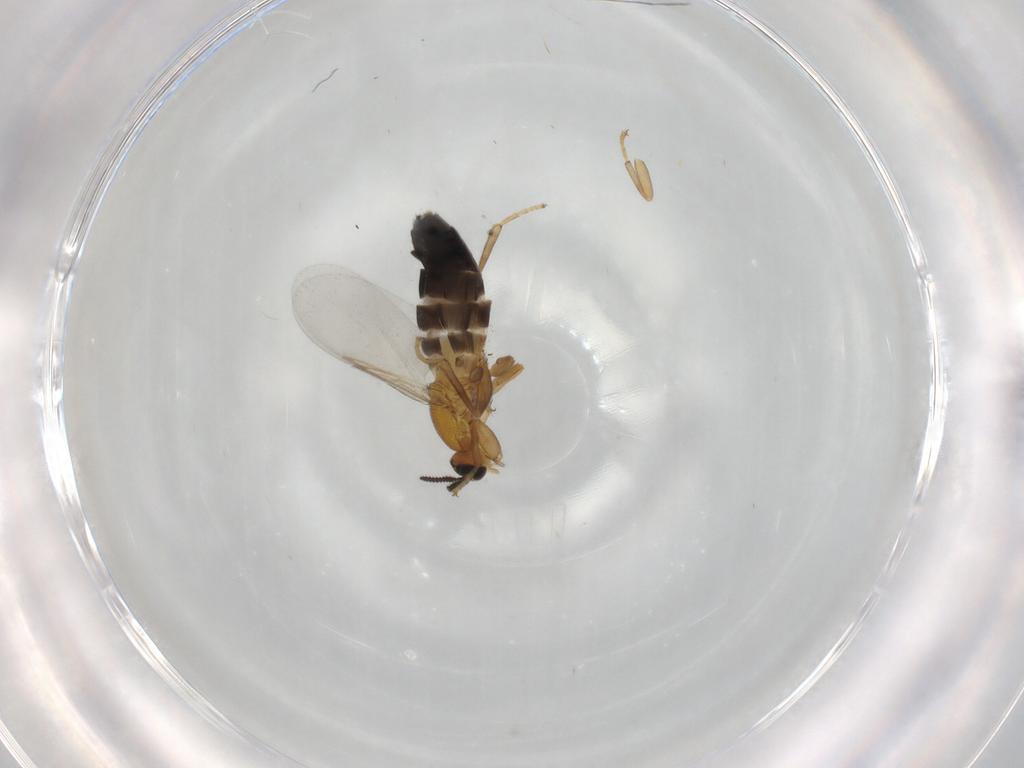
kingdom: Animalia
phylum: Arthropoda
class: Insecta
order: Diptera
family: Scatopsidae
